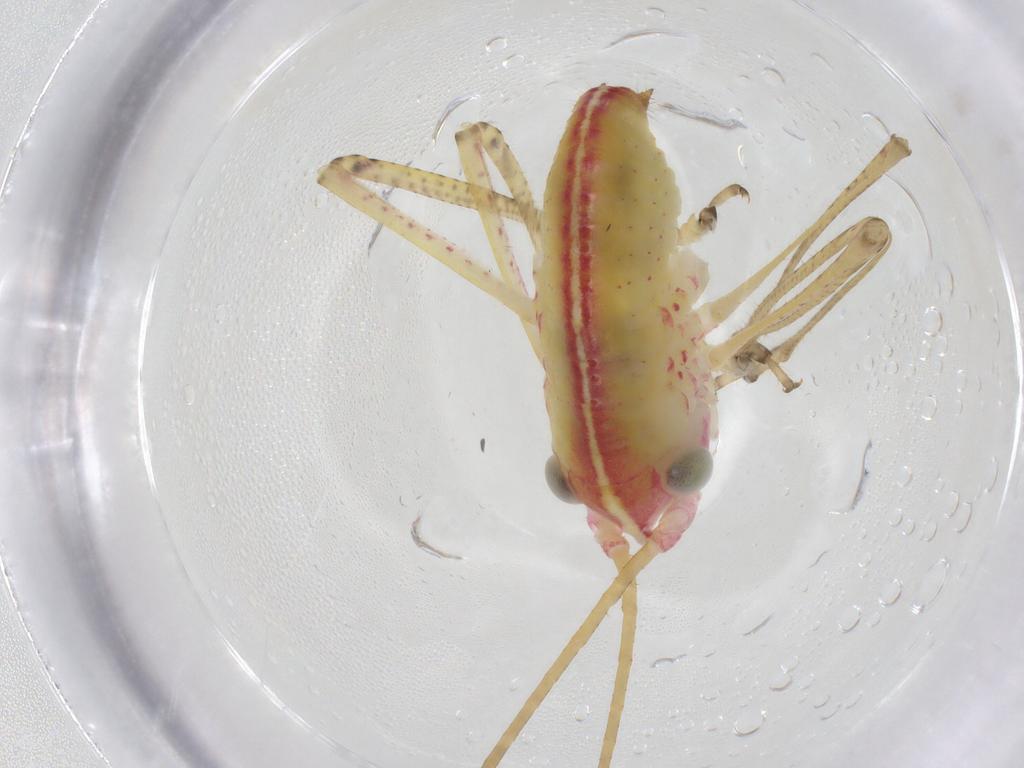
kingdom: Animalia
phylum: Arthropoda
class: Insecta
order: Orthoptera
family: Tettigoniidae
